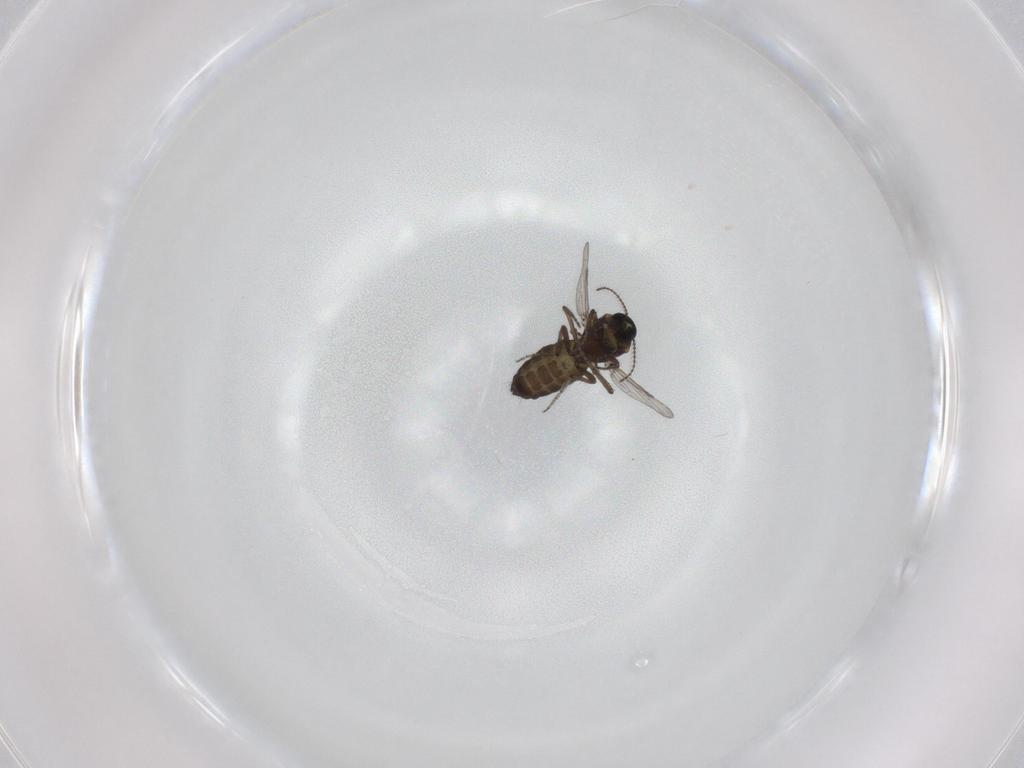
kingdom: Animalia
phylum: Arthropoda
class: Insecta
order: Diptera
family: Ceratopogonidae
